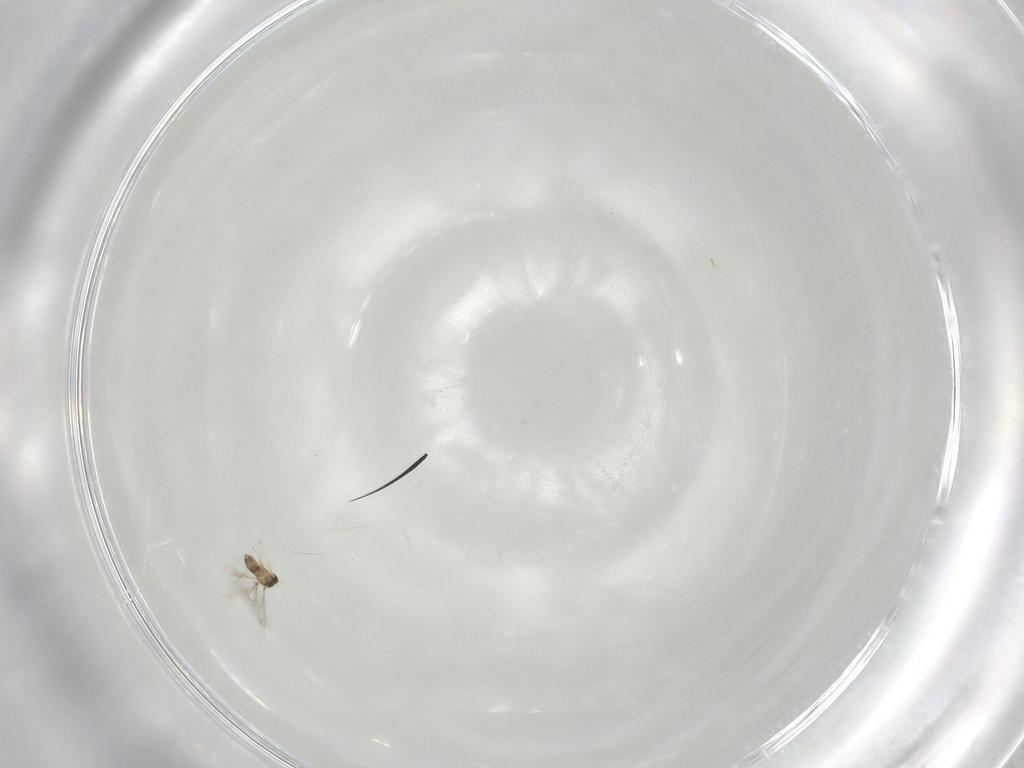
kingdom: Animalia
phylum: Arthropoda
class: Insecta
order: Hymenoptera
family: Mymaridae
